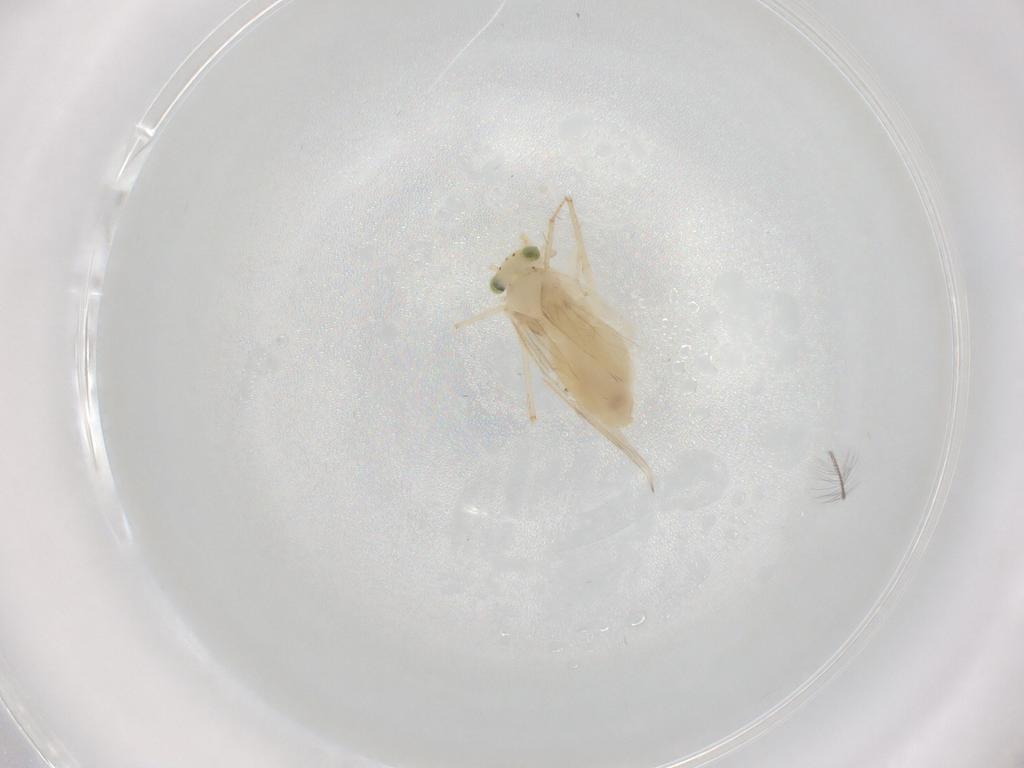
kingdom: Animalia
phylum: Arthropoda
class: Insecta
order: Psocodea
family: Lepidopsocidae
